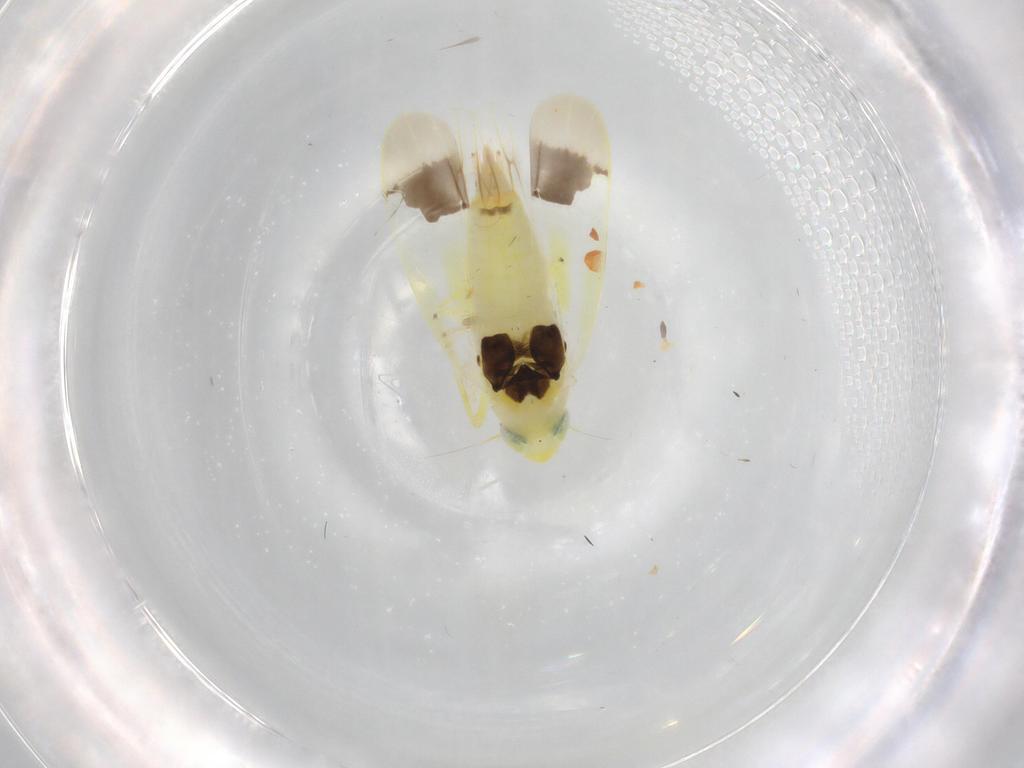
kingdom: Animalia
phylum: Arthropoda
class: Insecta
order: Hemiptera
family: Cicadellidae
